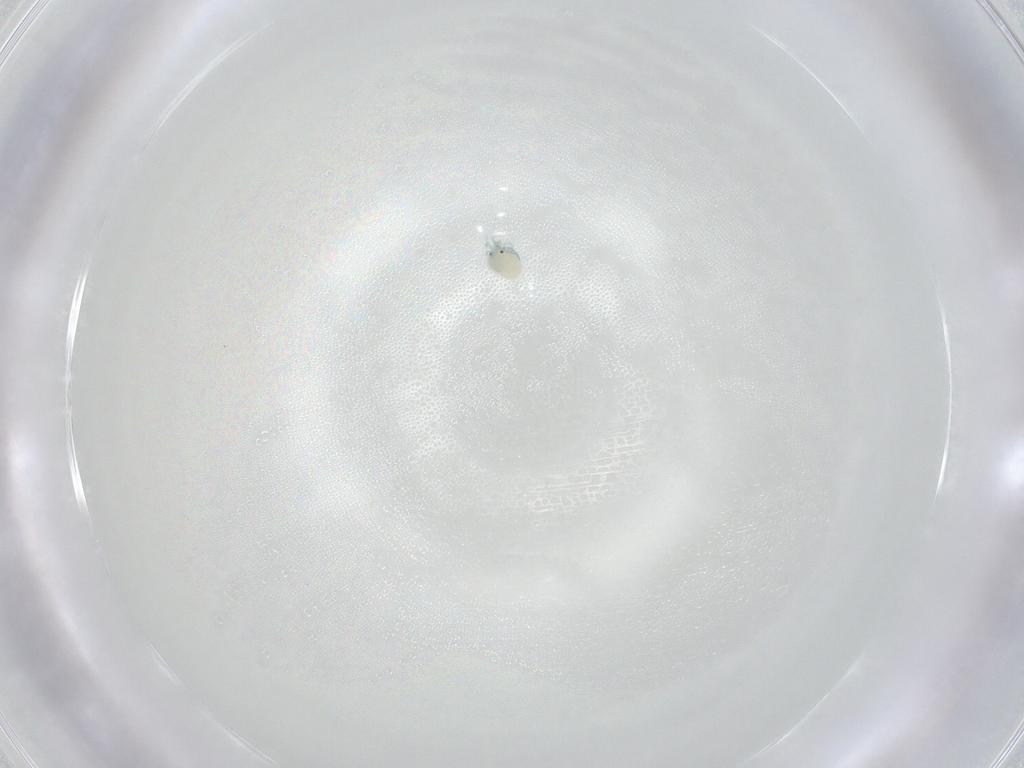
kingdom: Animalia
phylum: Arthropoda
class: Arachnida
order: Trombidiformes
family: Arrenuridae
